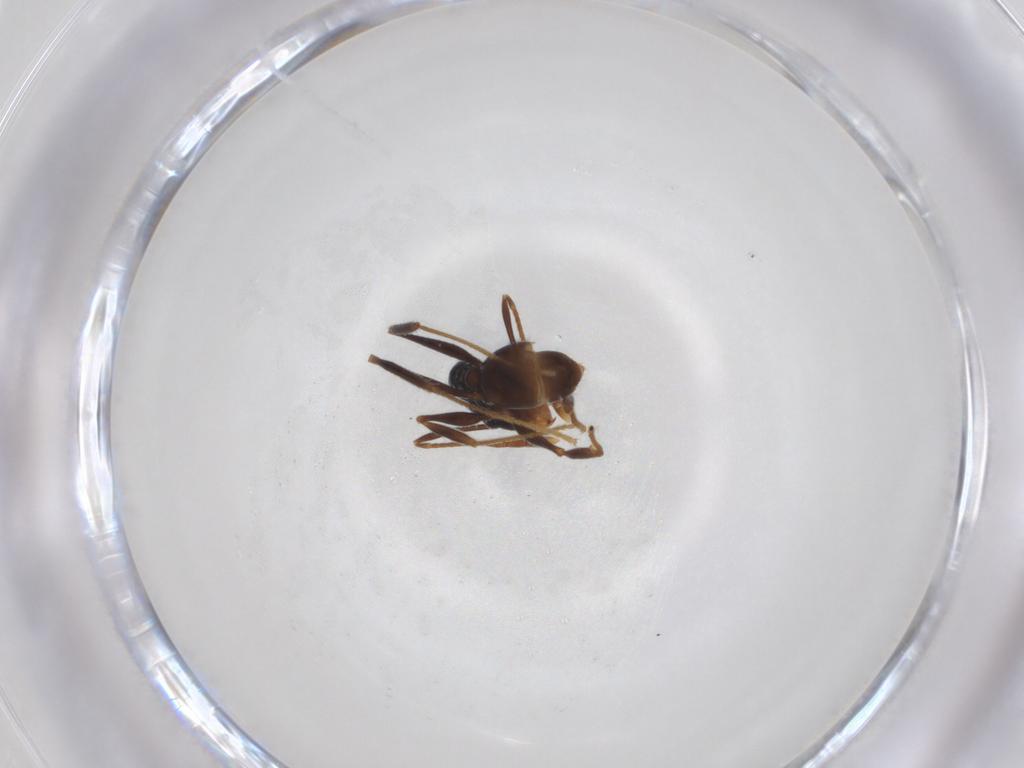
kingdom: Animalia
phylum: Arthropoda
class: Insecta
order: Hymenoptera
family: Formicidae
